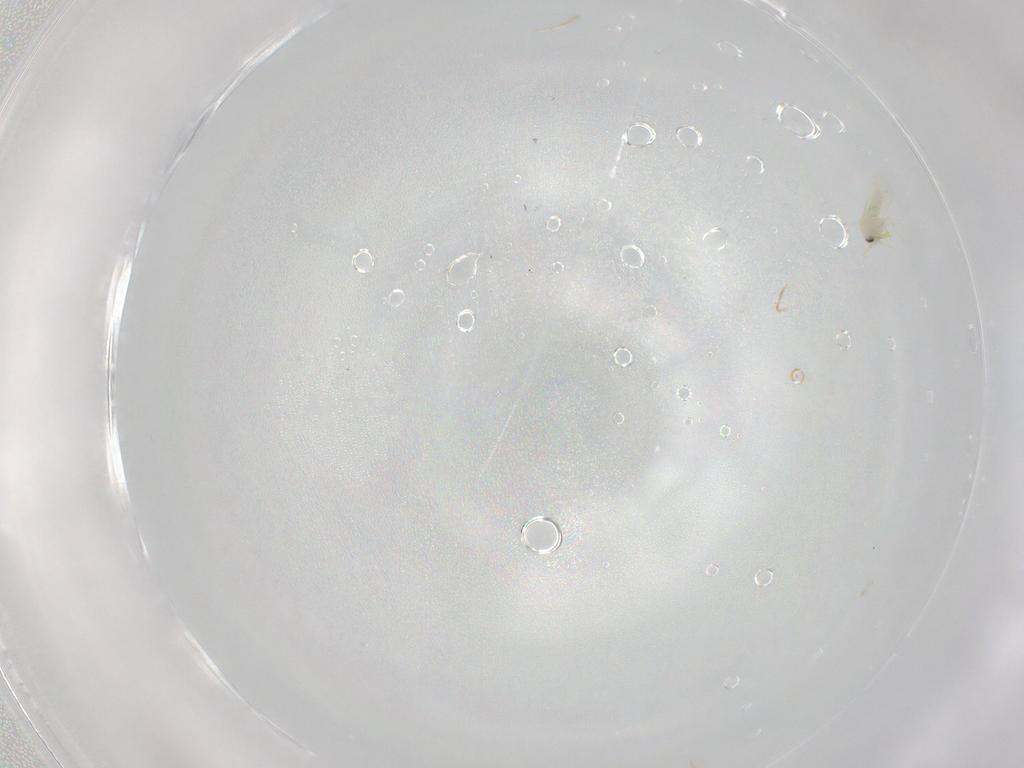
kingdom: Animalia
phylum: Arthropoda
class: Insecta
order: Hemiptera
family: Aleyrodidae
